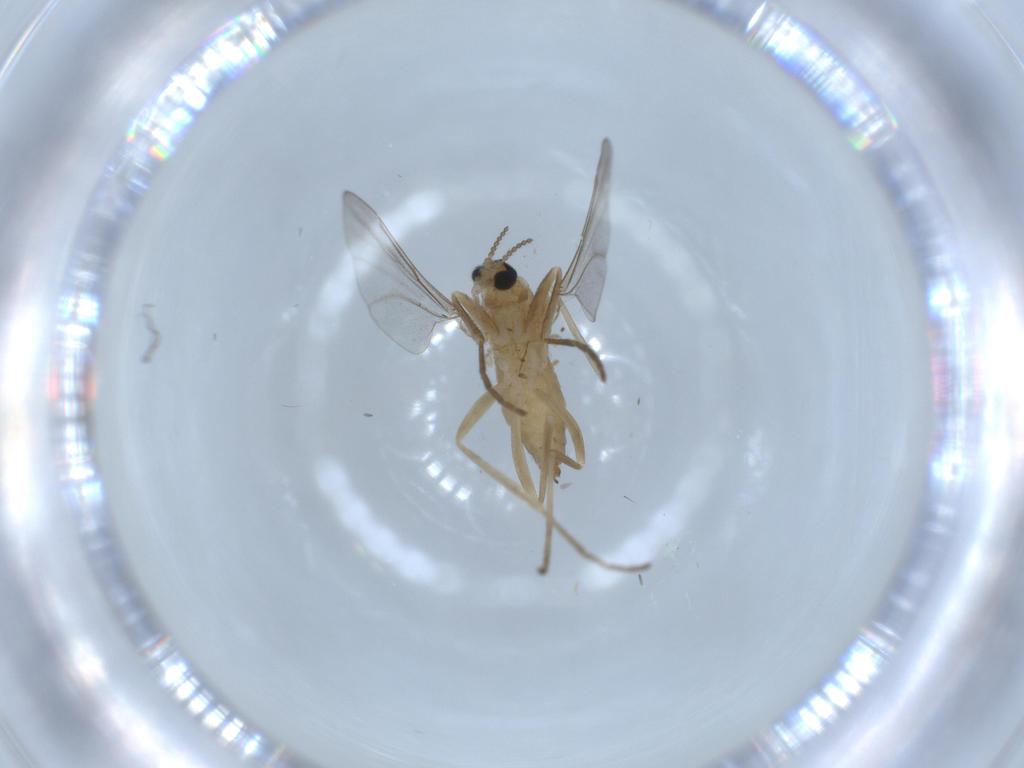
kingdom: Animalia
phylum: Arthropoda
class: Insecta
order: Diptera
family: Cecidomyiidae
